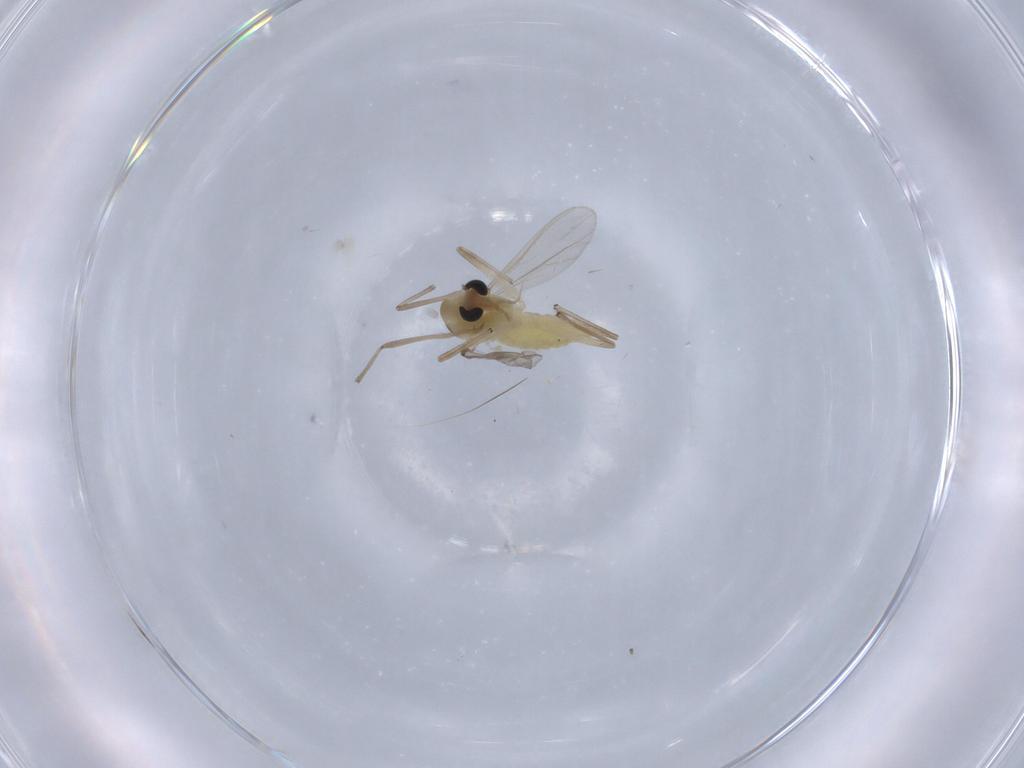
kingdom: Animalia
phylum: Arthropoda
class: Insecta
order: Diptera
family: Chironomidae
